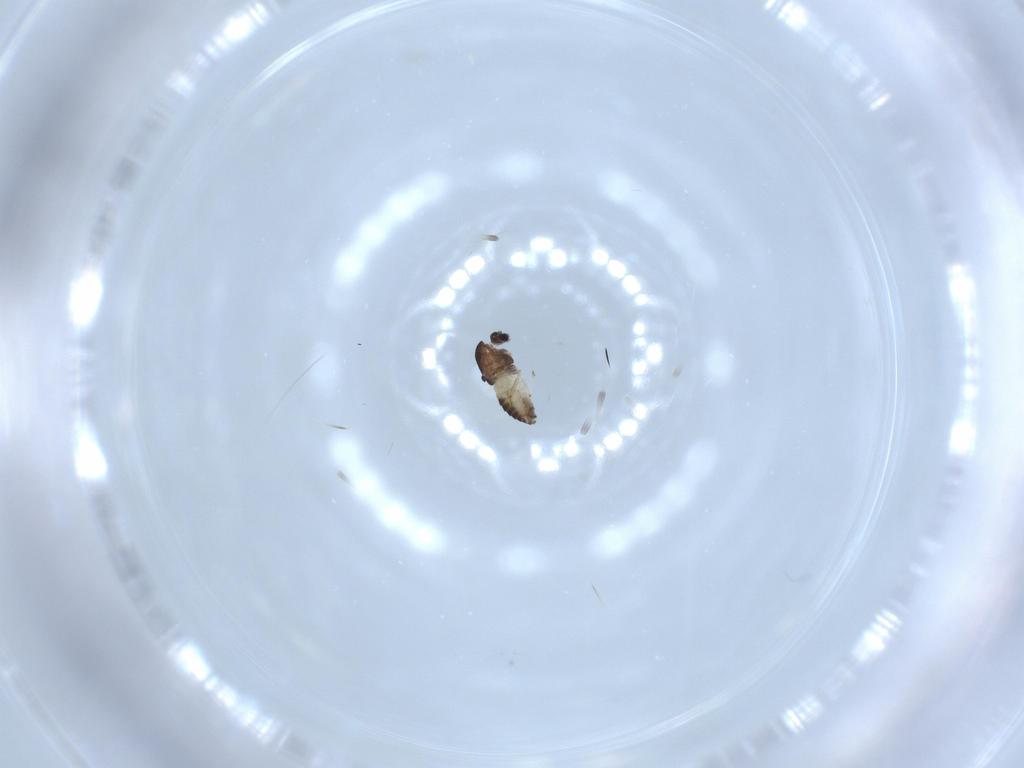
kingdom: Animalia
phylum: Arthropoda
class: Insecta
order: Diptera
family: Chironomidae
